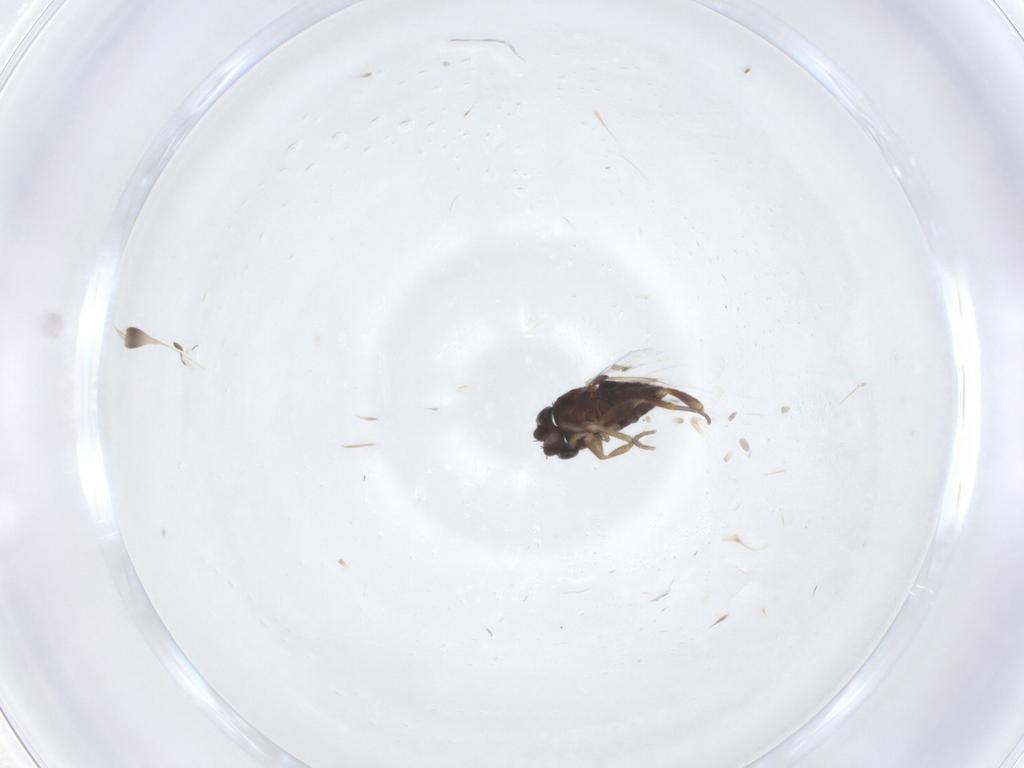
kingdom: Animalia
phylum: Arthropoda
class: Insecta
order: Diptera
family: Phoridae
